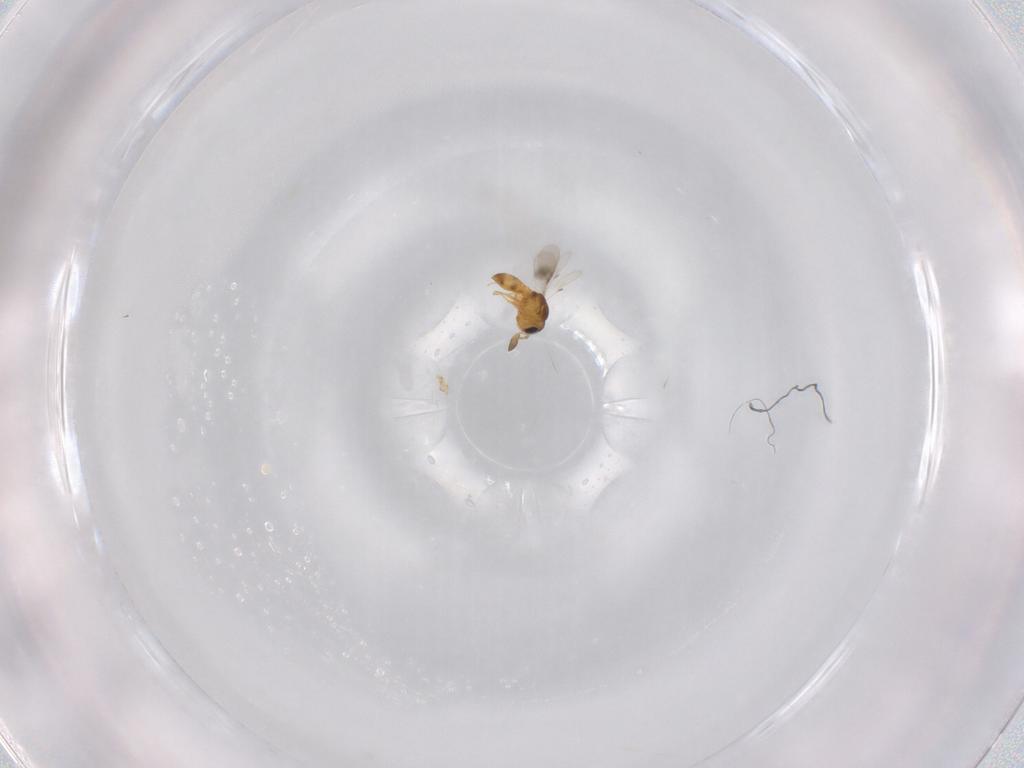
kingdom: Animalia
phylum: Arthropoda
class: Insecta
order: Hymenoptera
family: Scelionidae
